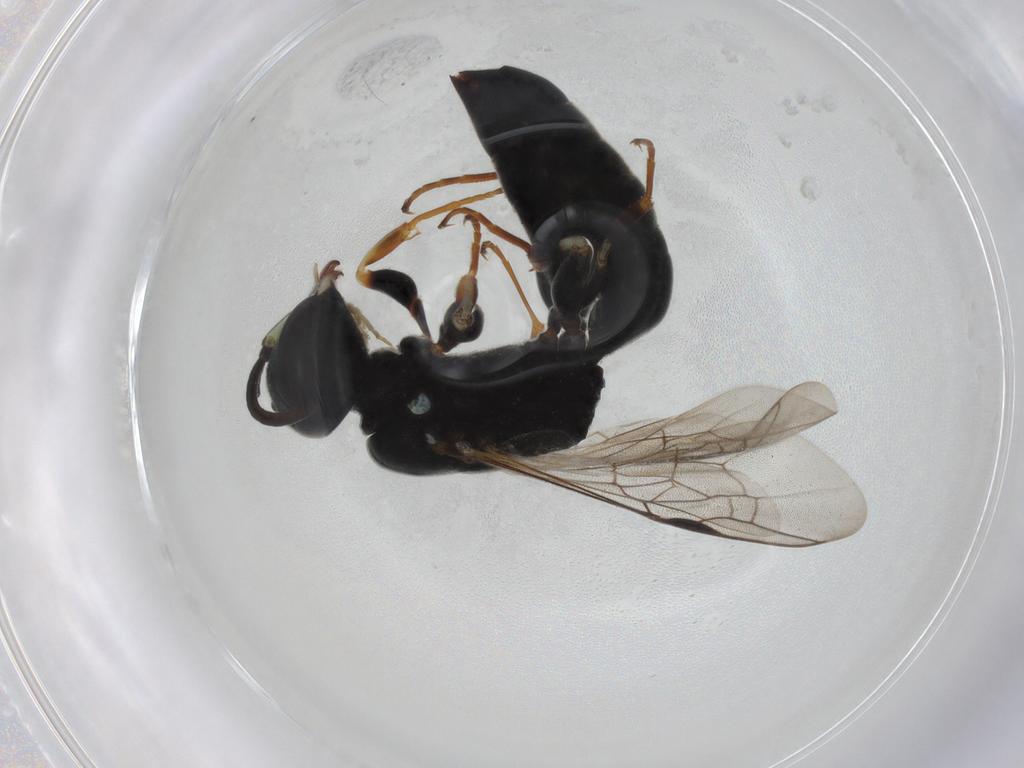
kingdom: Animalia
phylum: Arthropoda
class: Insecta
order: Hymenoptera
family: Pemphredonidae
